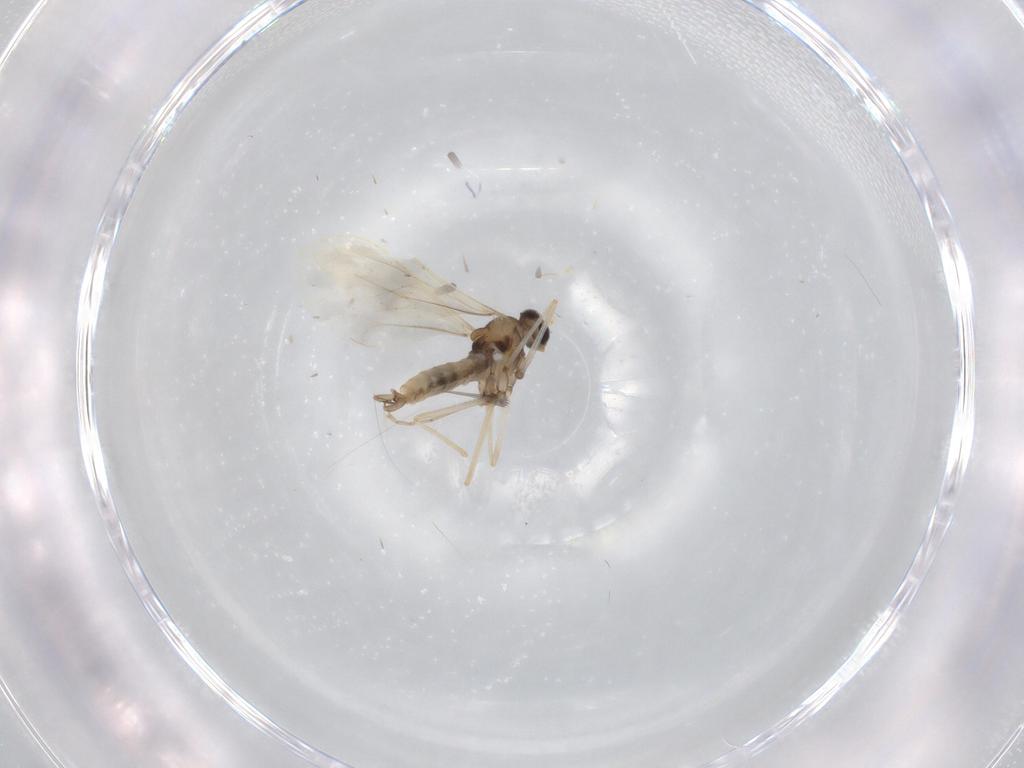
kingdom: Animalia
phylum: Arthropoda
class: Insecta
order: Diptera
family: Cecidomyiidae
